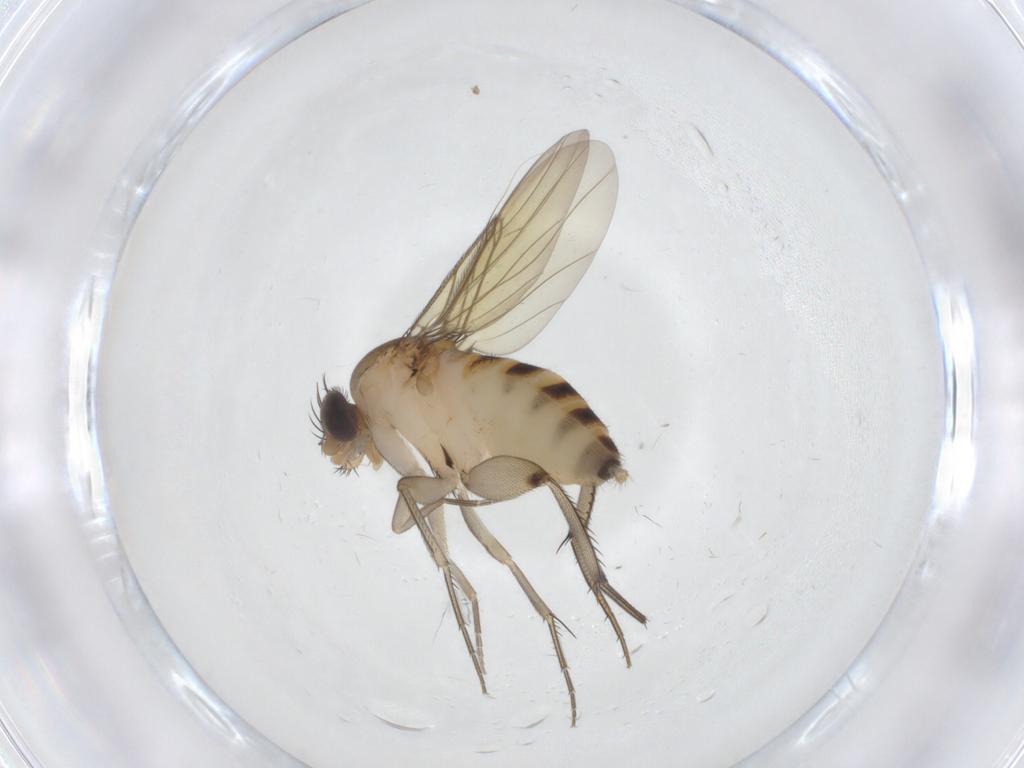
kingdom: Animalia
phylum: Arthropoda
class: Insecta
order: Diptera
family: Phoridae
